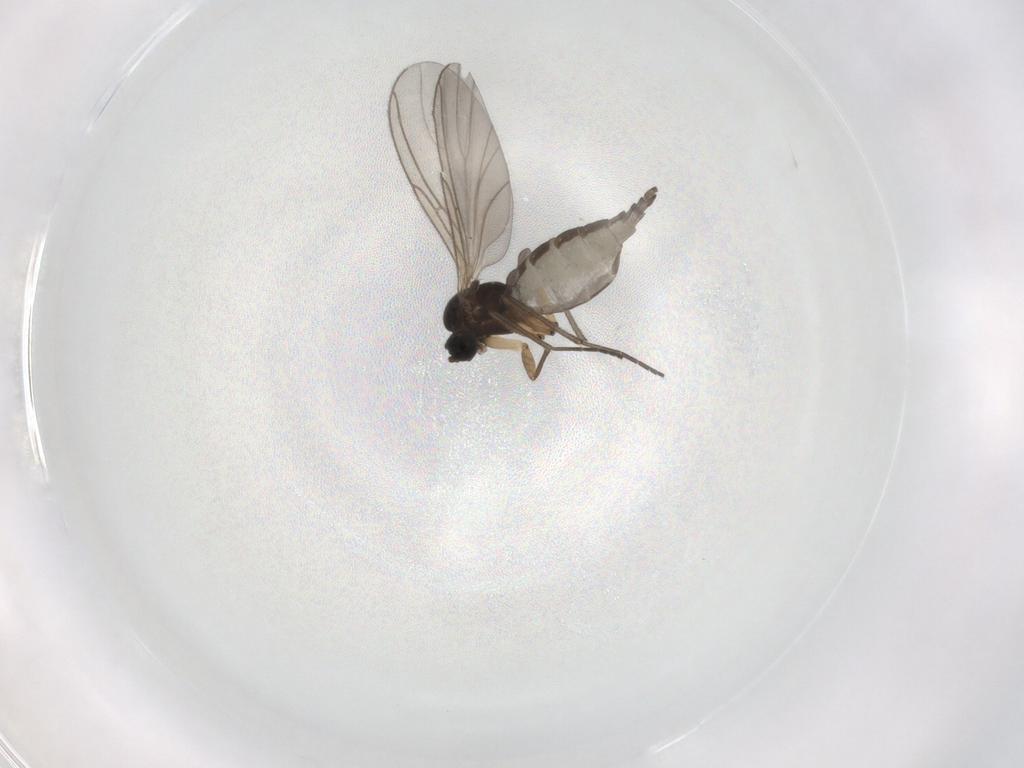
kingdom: Animalia
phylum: Arthropoda
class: Insecta
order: Diptera
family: Sciaridae
